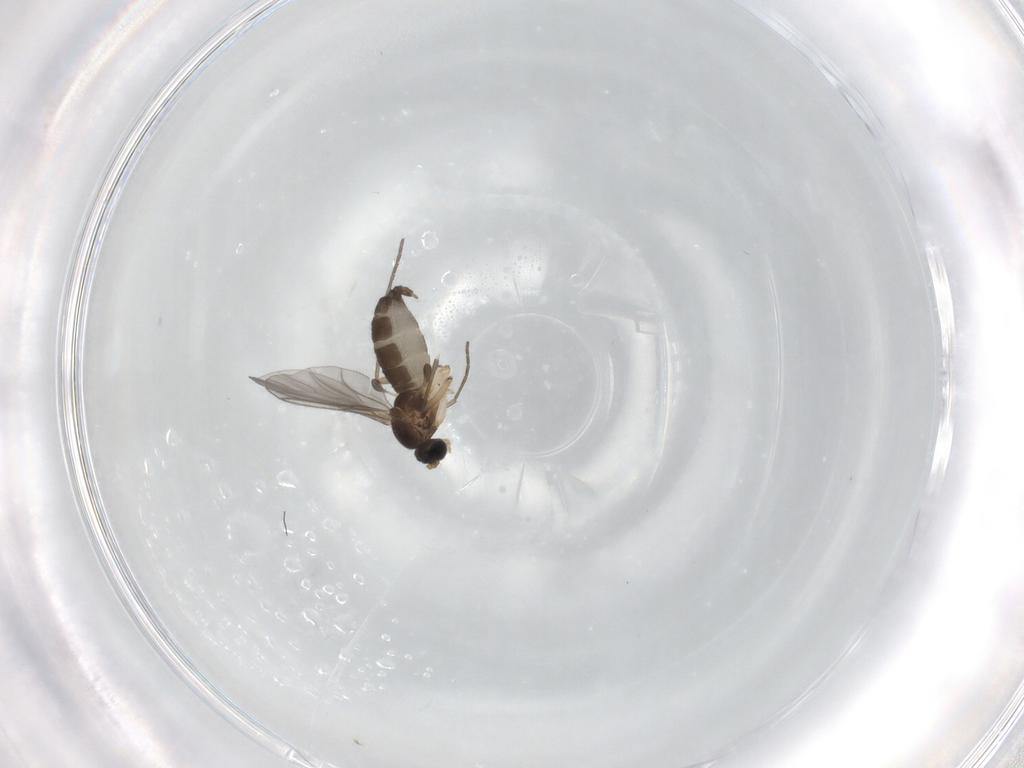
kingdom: Animalia
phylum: Arthropoda
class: Insecta
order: Diptera
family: Sciaridae
